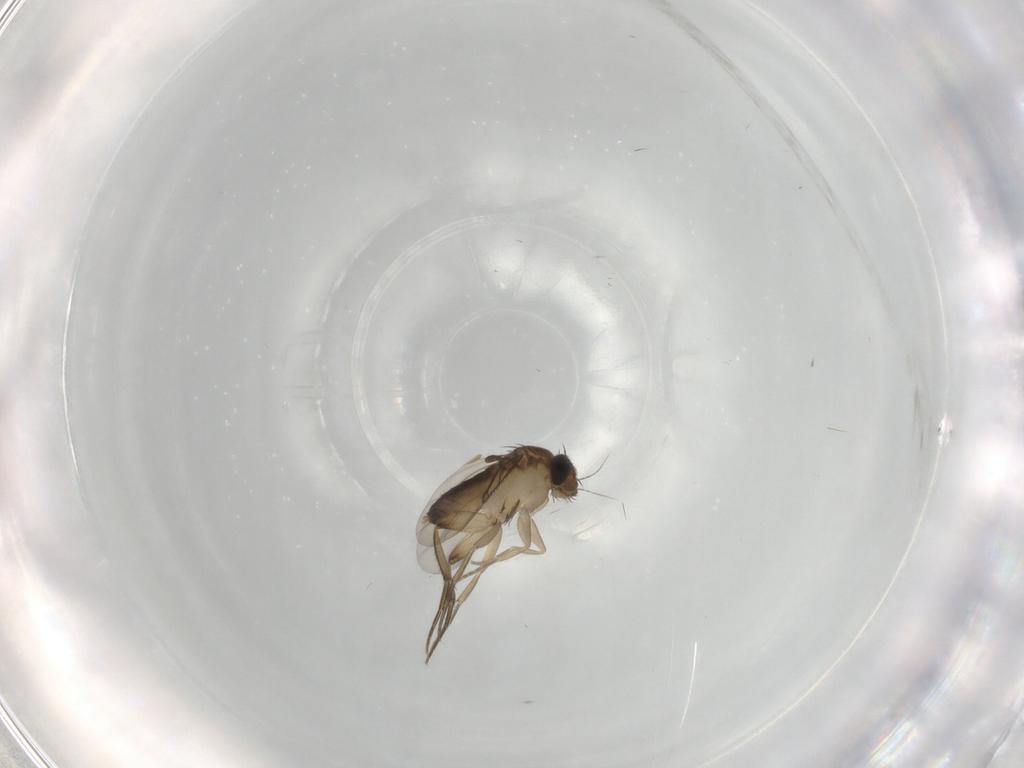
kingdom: Animalia
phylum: Arthropoda
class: Insecta
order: Diptera
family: Phoridae
